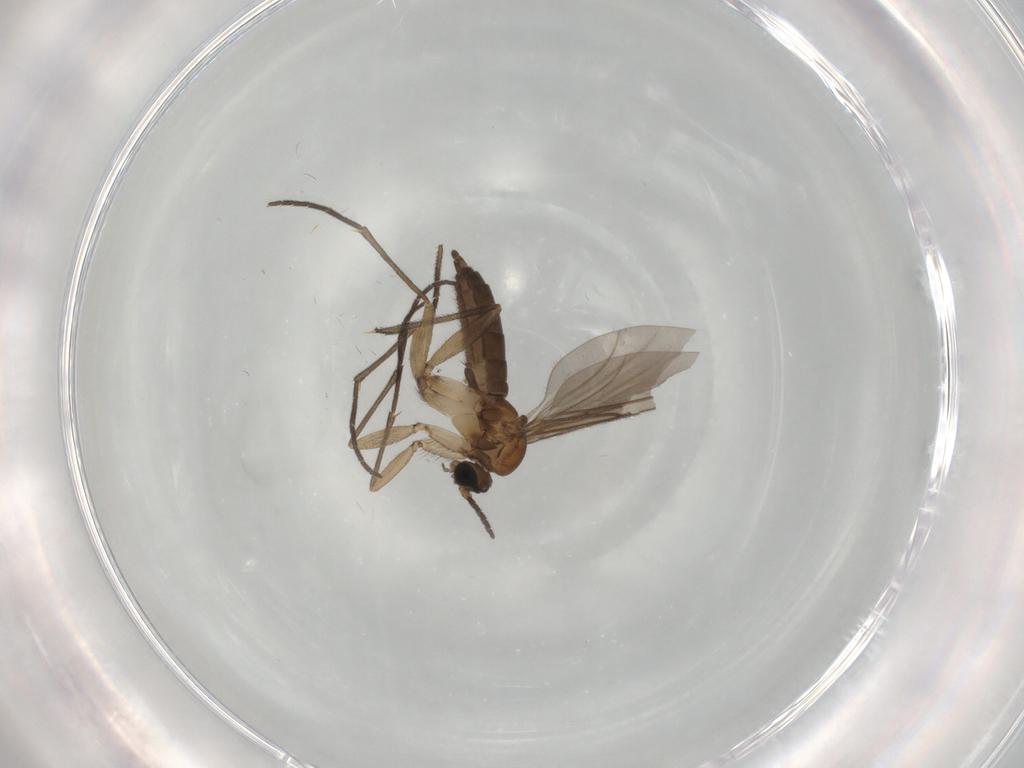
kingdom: Animalia
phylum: Arthropoda
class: Insecta
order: Diptera
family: Sciaridae
